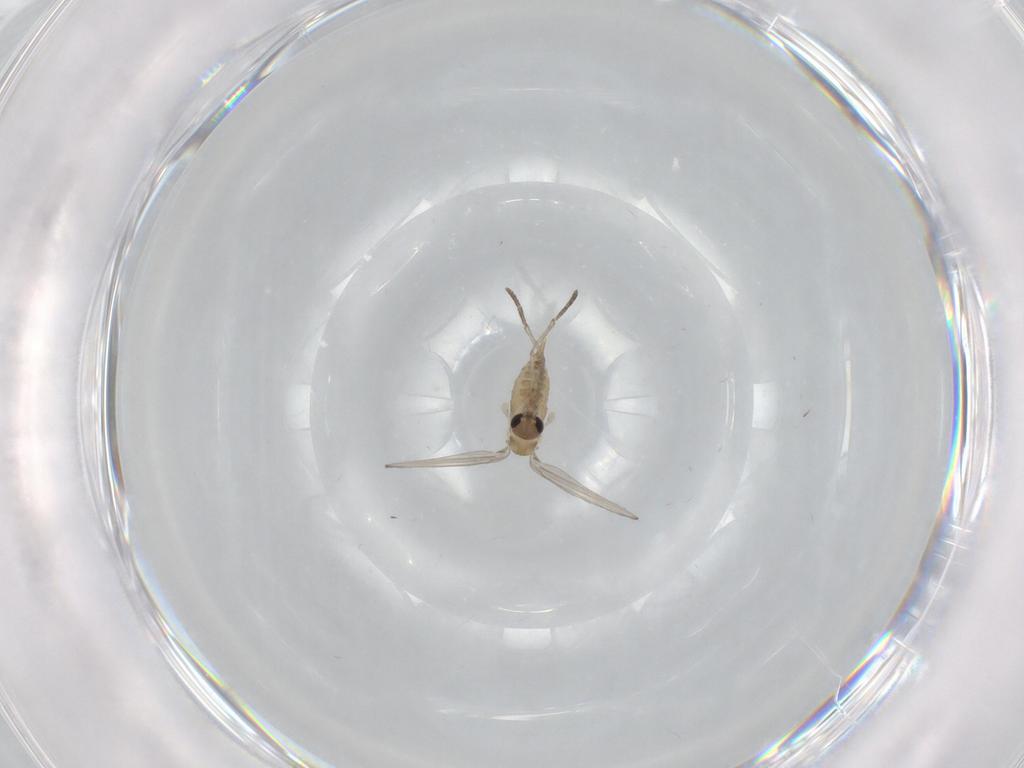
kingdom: Animalia
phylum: Arthropoda
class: Insecta
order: Diptera
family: Psychodidae
